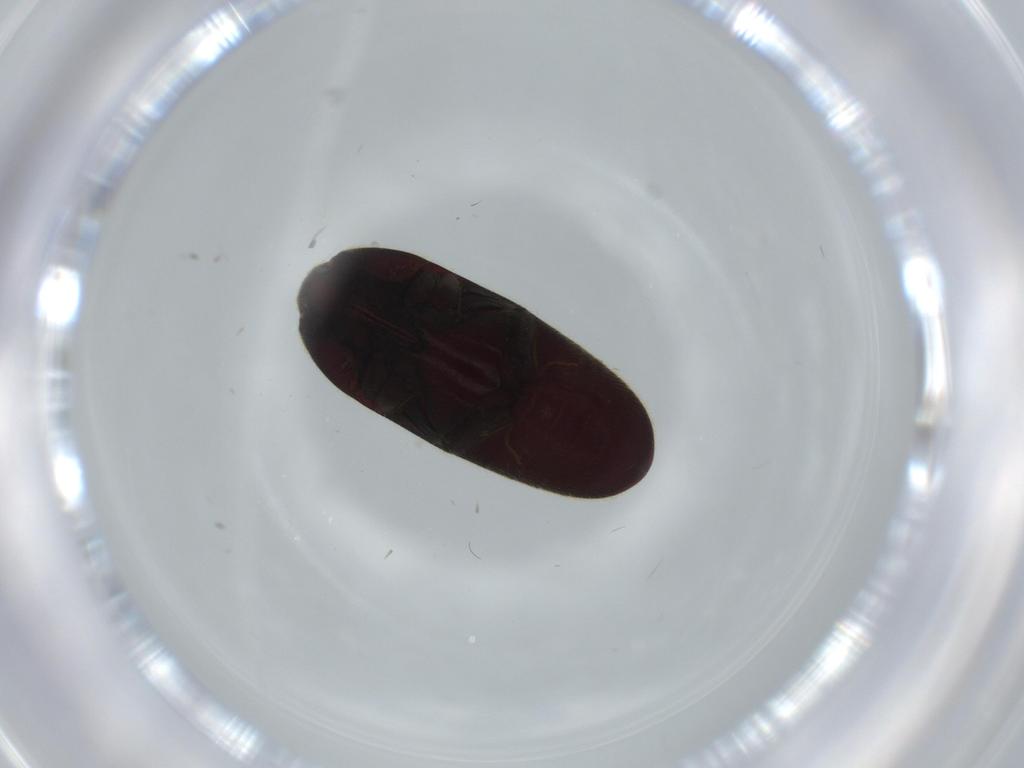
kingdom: Animalia
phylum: Arthropoda
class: Insecta
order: Coleoptera
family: Throscidae
